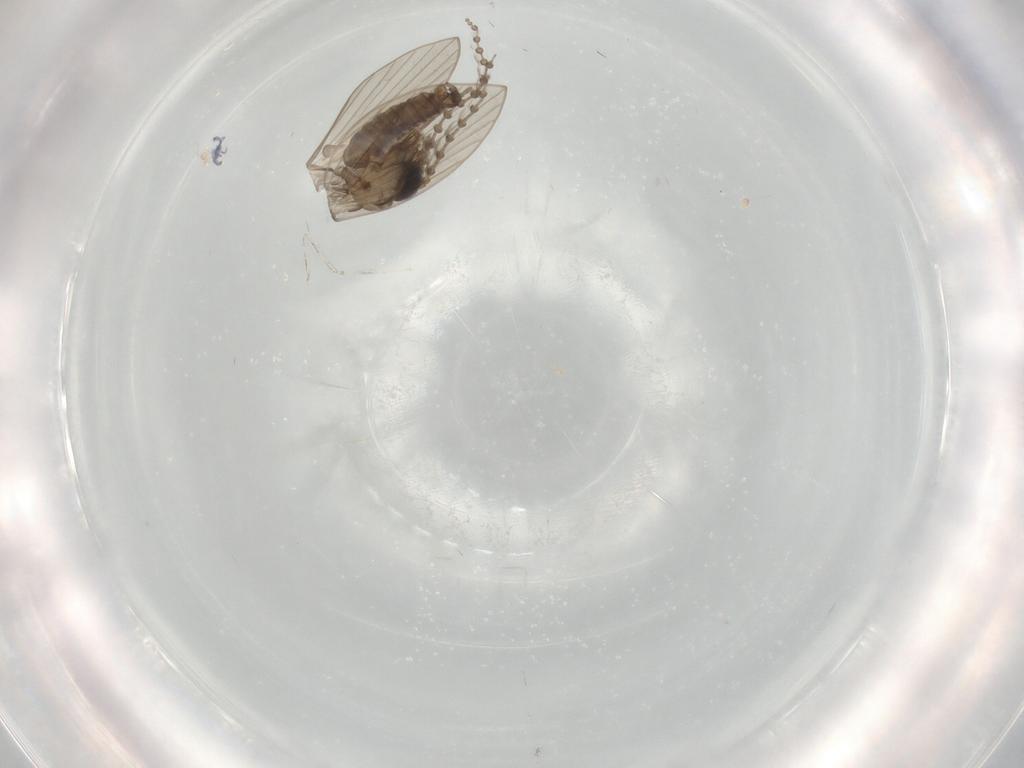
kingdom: Animalia
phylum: Arthropoda
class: Insecta
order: Diptera
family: Psychodidae
